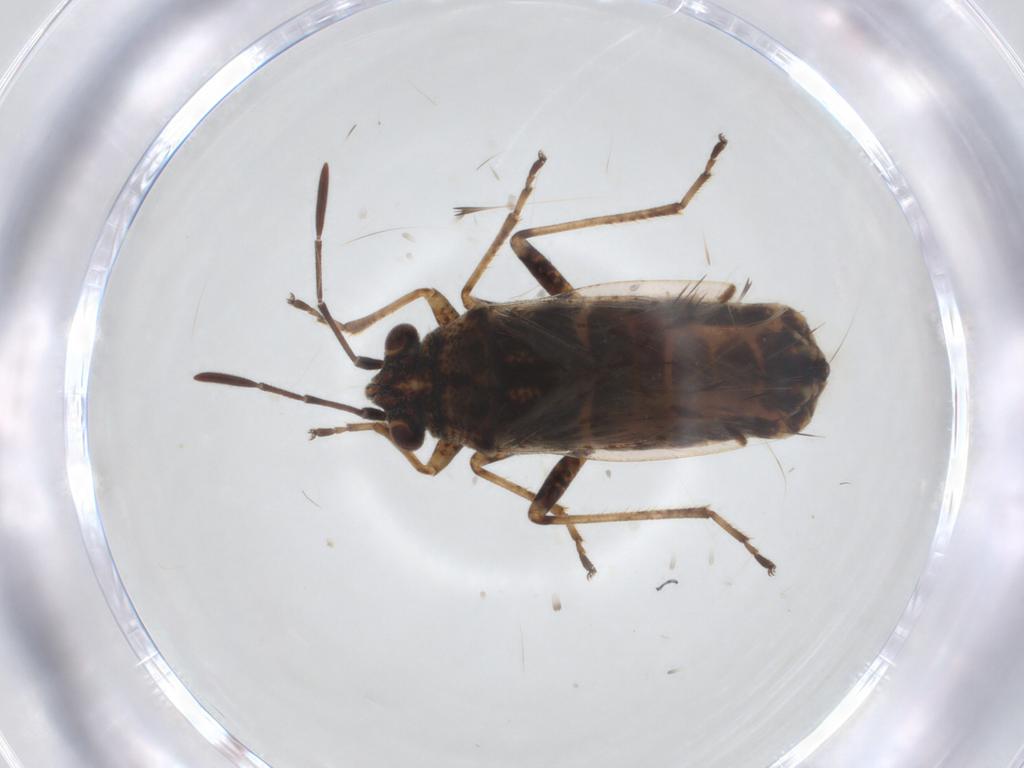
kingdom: Animalia
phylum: Arthropoda
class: Insecta
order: Hemiptera
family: Lygaeidae
